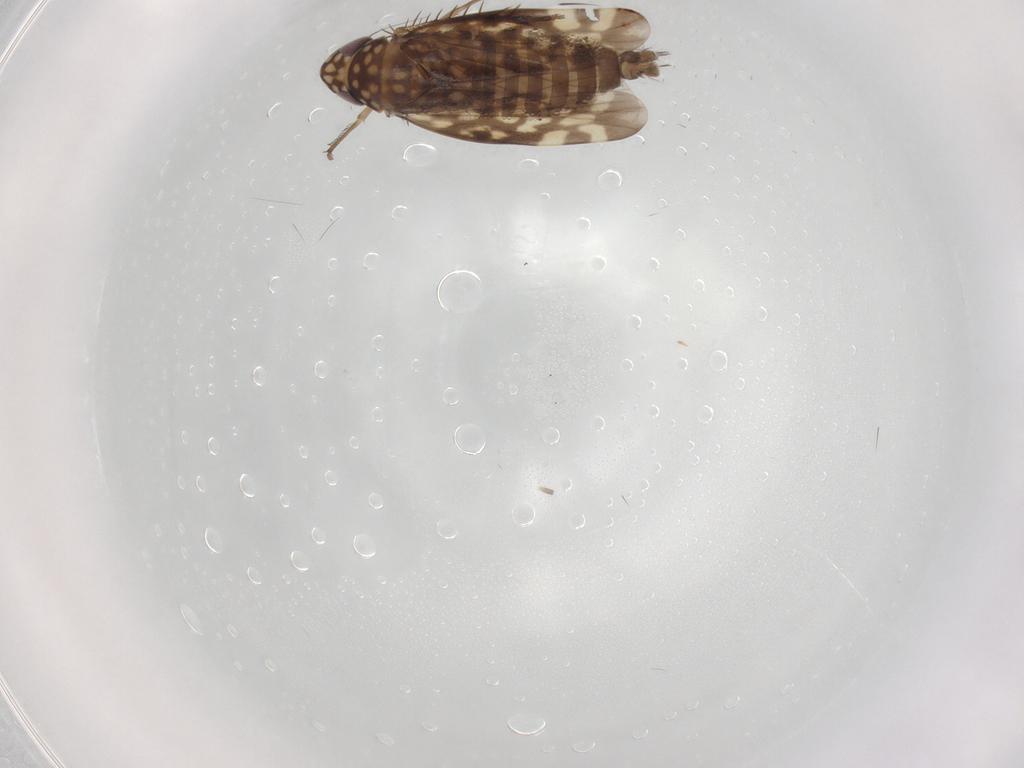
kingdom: Animalia
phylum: Arthropoda
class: Insecta
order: Hemiptera
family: Cicadellidae
